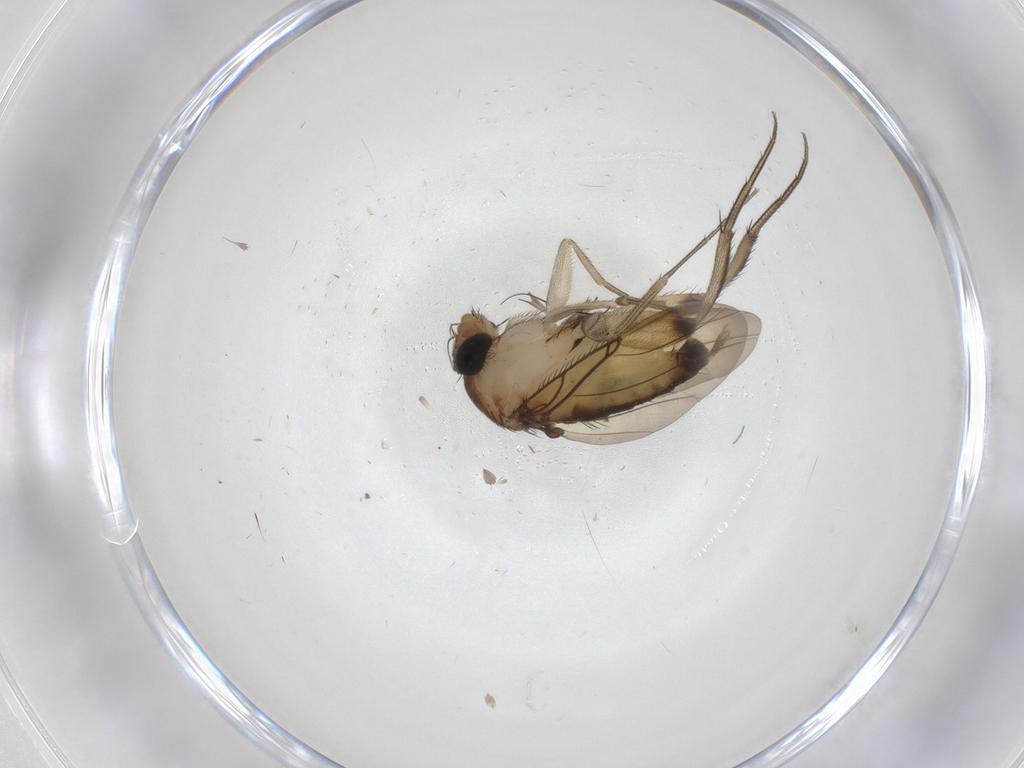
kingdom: Animalia
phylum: Arthropoda
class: Insecta
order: Diptera
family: Phoridae
